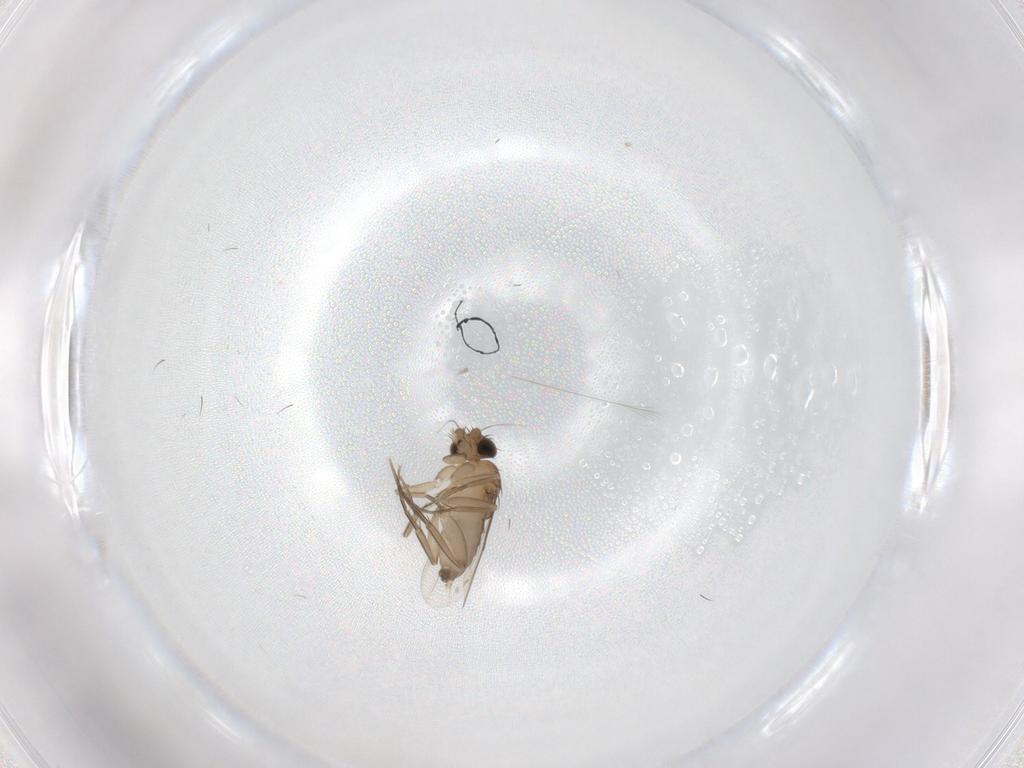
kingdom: Animalia
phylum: Arthropoda
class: Insecta
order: Diptera
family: Phoridae
